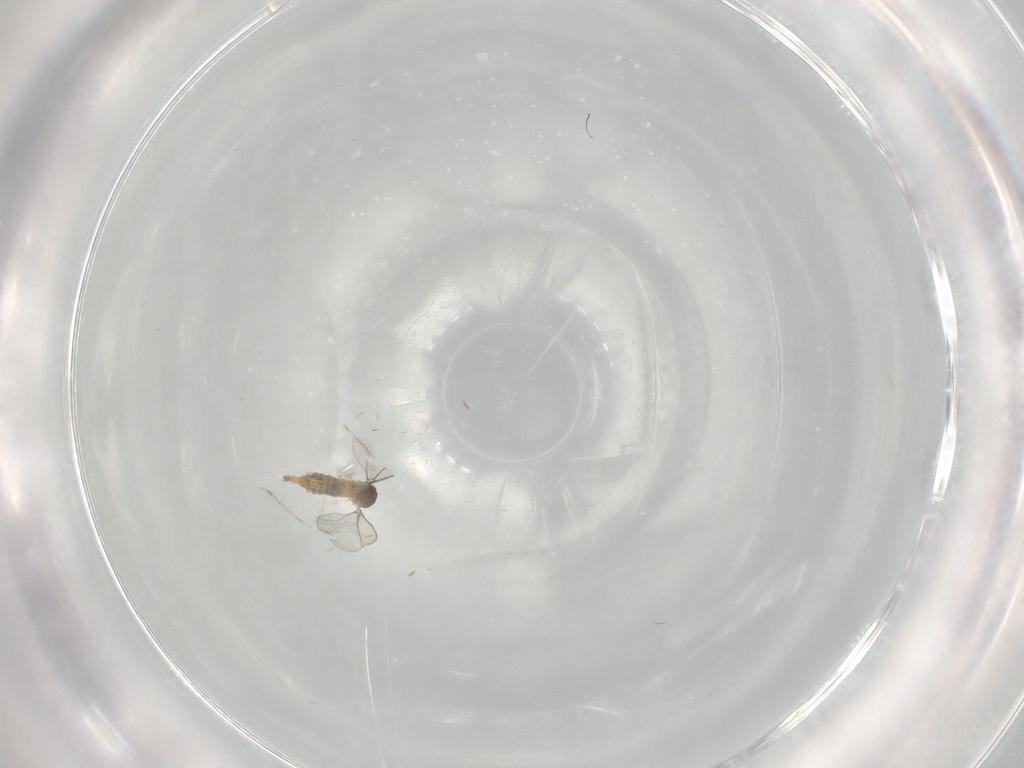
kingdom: Animalia
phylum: Arthropoda
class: Insecta
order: Diptera
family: Cecidomyiidae
